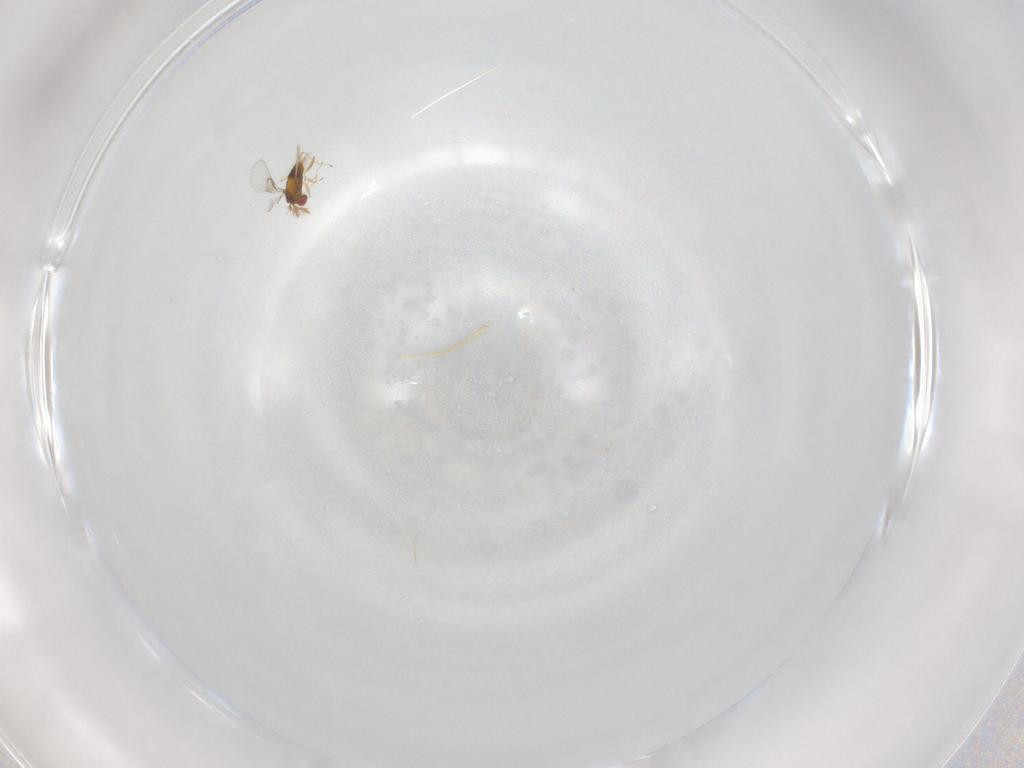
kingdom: Animalia
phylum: Arthropoda
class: Insecta
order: Hymenoptera
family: Trichogrammatidae
